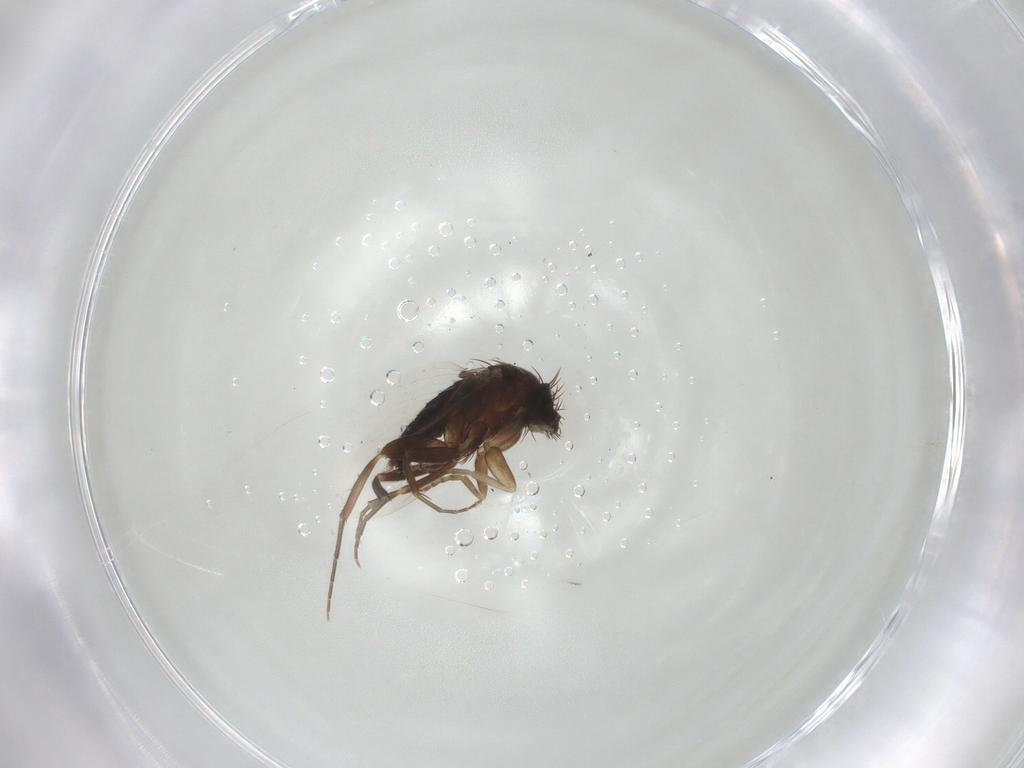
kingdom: Animalia
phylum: Arthropoda
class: Insecta
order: Diptera
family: Phoridae
